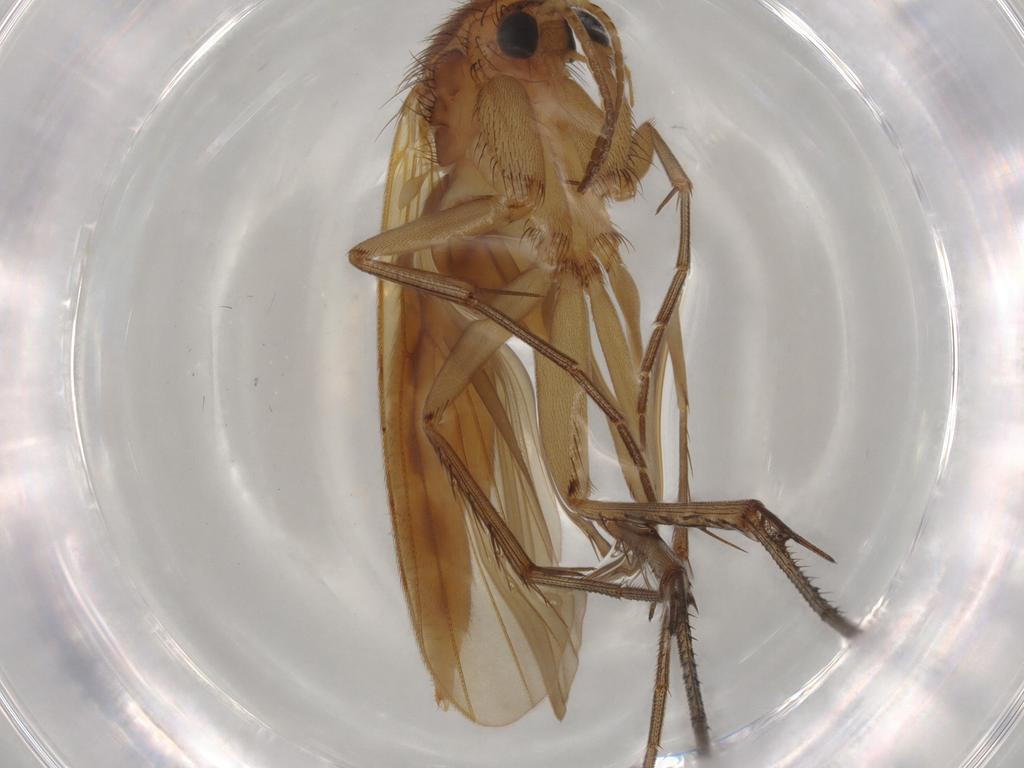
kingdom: Animalia
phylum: Arthropoda
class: Insecta
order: Diptera
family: Mycetophilidae
